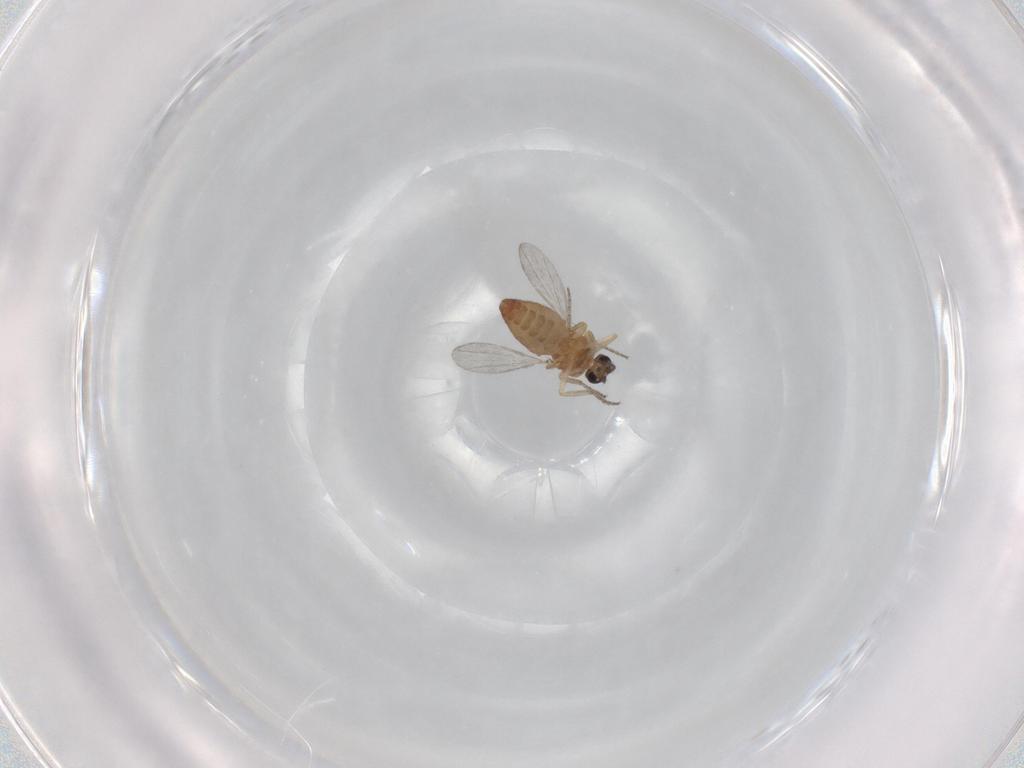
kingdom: Animalia
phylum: Arthropoda
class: Insecta
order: Diptera
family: Ceratopogonidae
